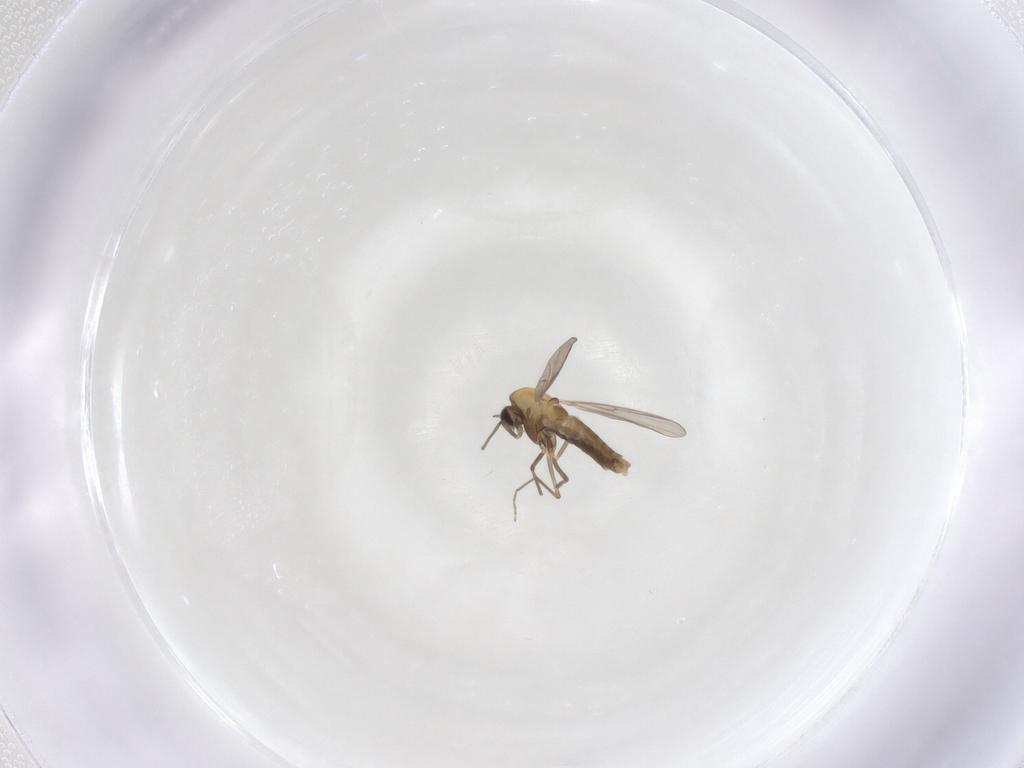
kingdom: Animalia
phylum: Arthropoda
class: Insecta
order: Diptera
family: Chironomidae
